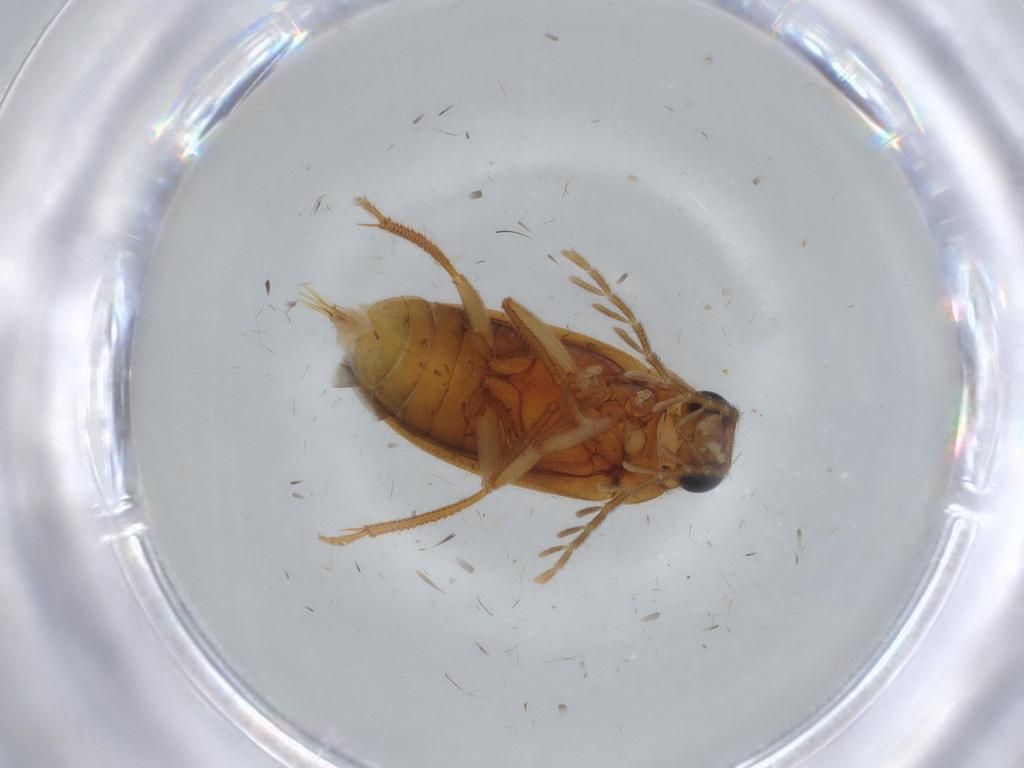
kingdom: Animalia
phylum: Arthropoda
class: Insecta
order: Coleoptera
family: Ptilodactylidae
